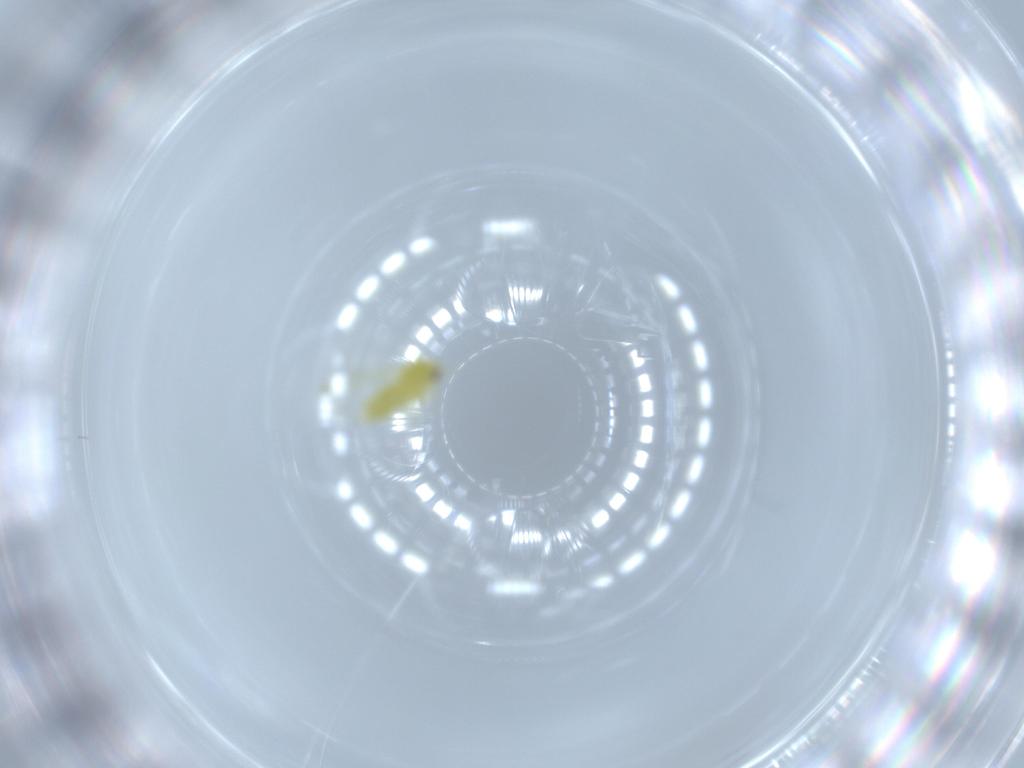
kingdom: Animalia
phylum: Arthropoda
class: Insecta
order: Hemiptera
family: Aleyrodidae
